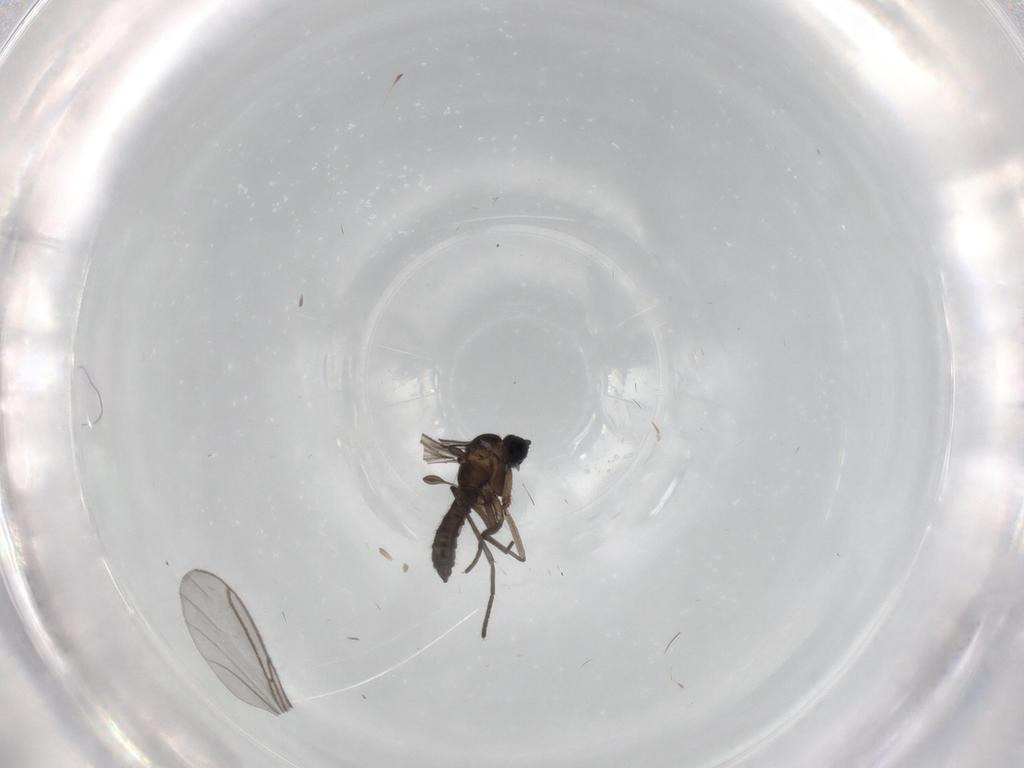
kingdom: Animalia
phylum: Arthropoda
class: Insecta
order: Diptera
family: Sciaridae
